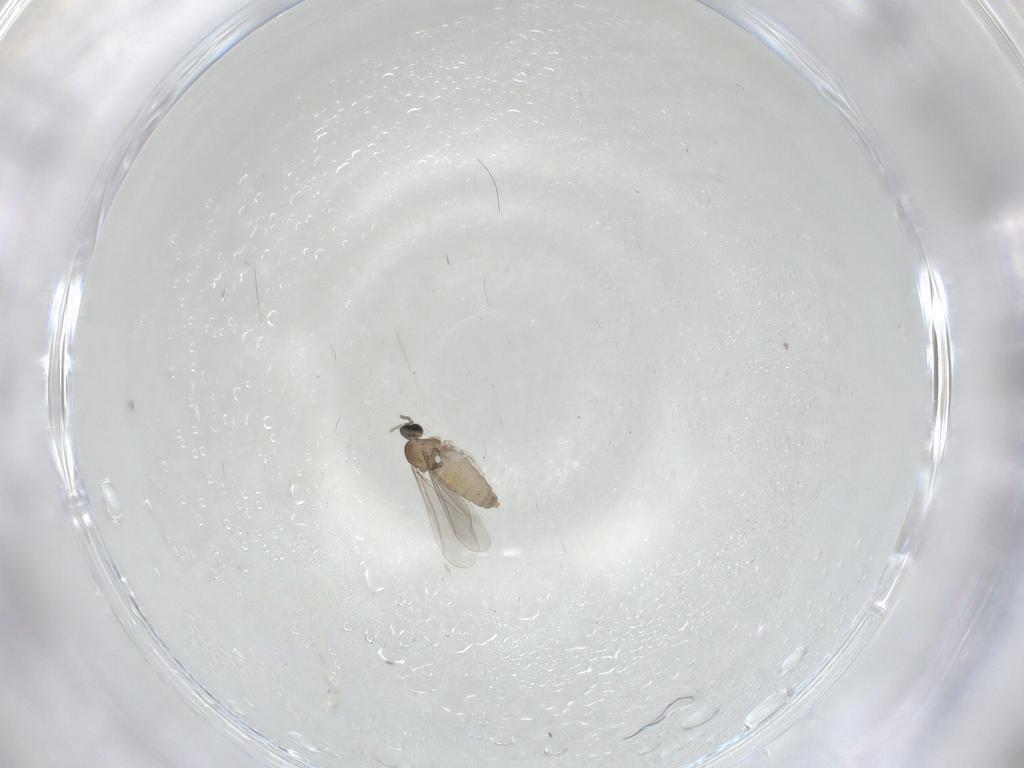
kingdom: Animalia
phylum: Arthropoda
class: Insecta
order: Diptera
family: Cecidomyiidae
